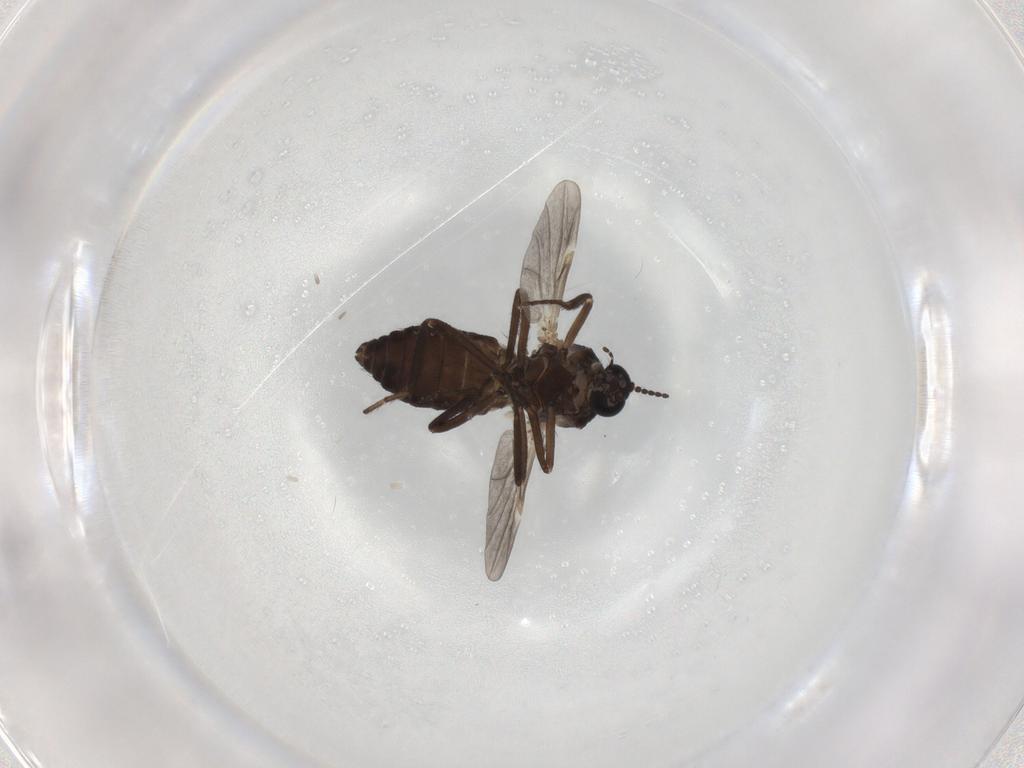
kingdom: Animalia
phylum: Arthropoda
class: Insecta
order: Diptera
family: Ceratopogonidae
